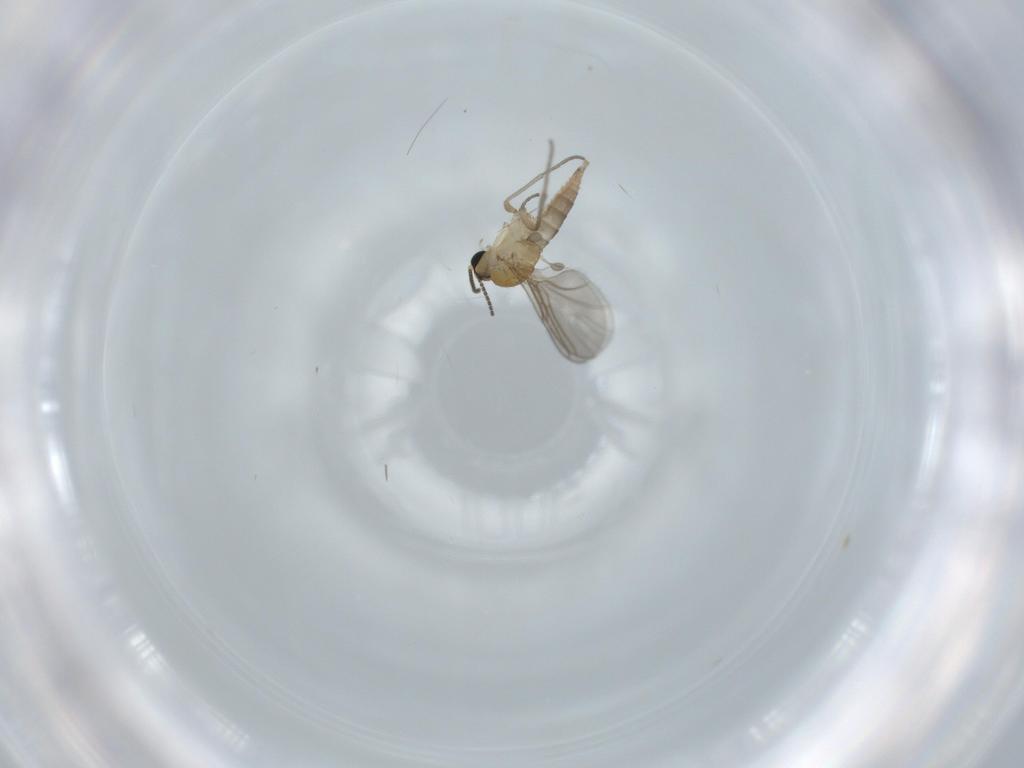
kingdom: Animalia
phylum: Arthropoda
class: Insecta
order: Diptera
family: Sciaridae
